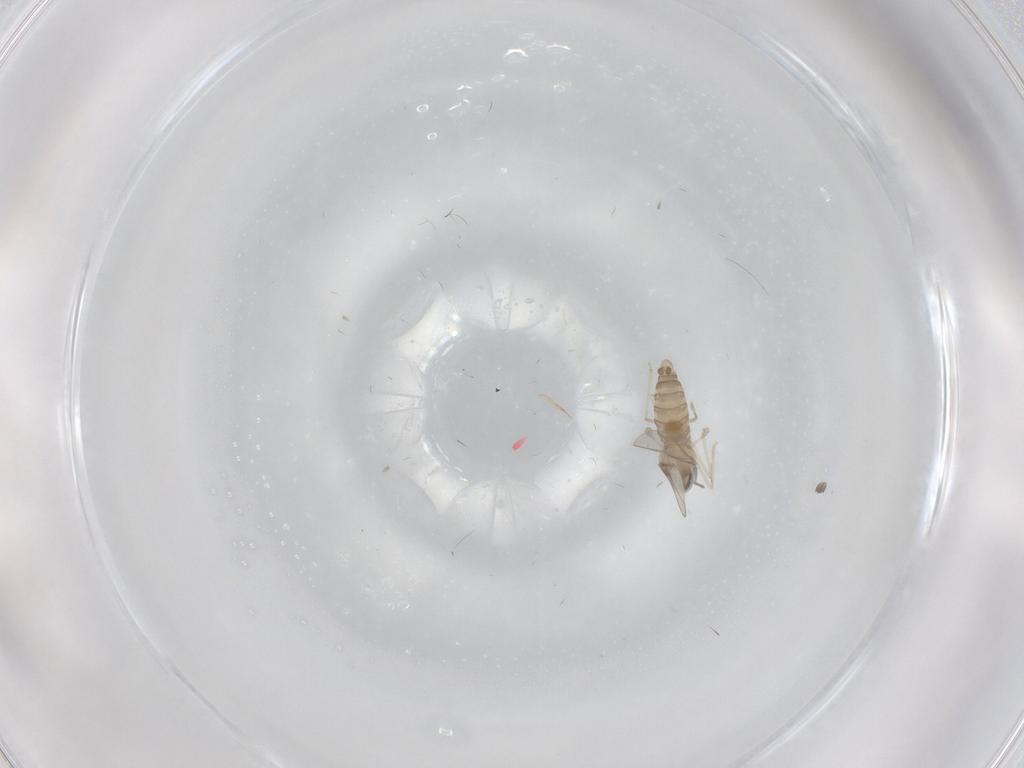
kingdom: Animalia
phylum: Arthropoda
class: Insecta
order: Diptera
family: Cecidomyiidae
